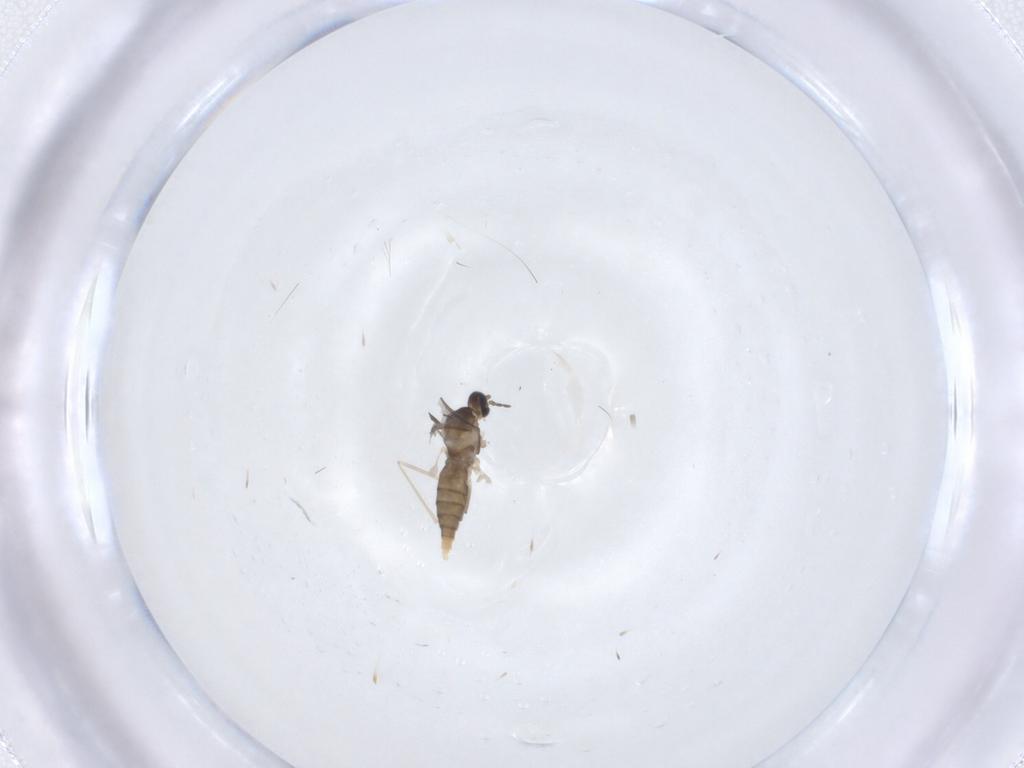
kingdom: Animalia
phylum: Arthropoda
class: Insecta
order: Diptera
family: Cecidomyiidae
